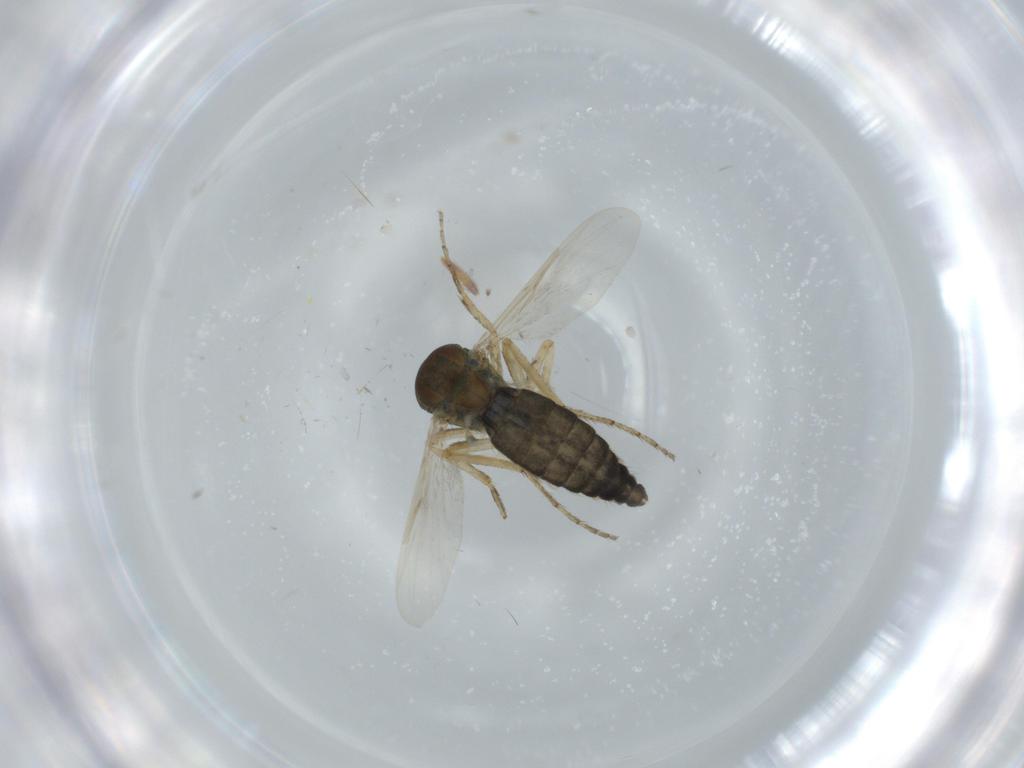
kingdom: Animalia
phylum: Arthropoda
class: Insecta
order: Diptera
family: Ceratopogonidae
